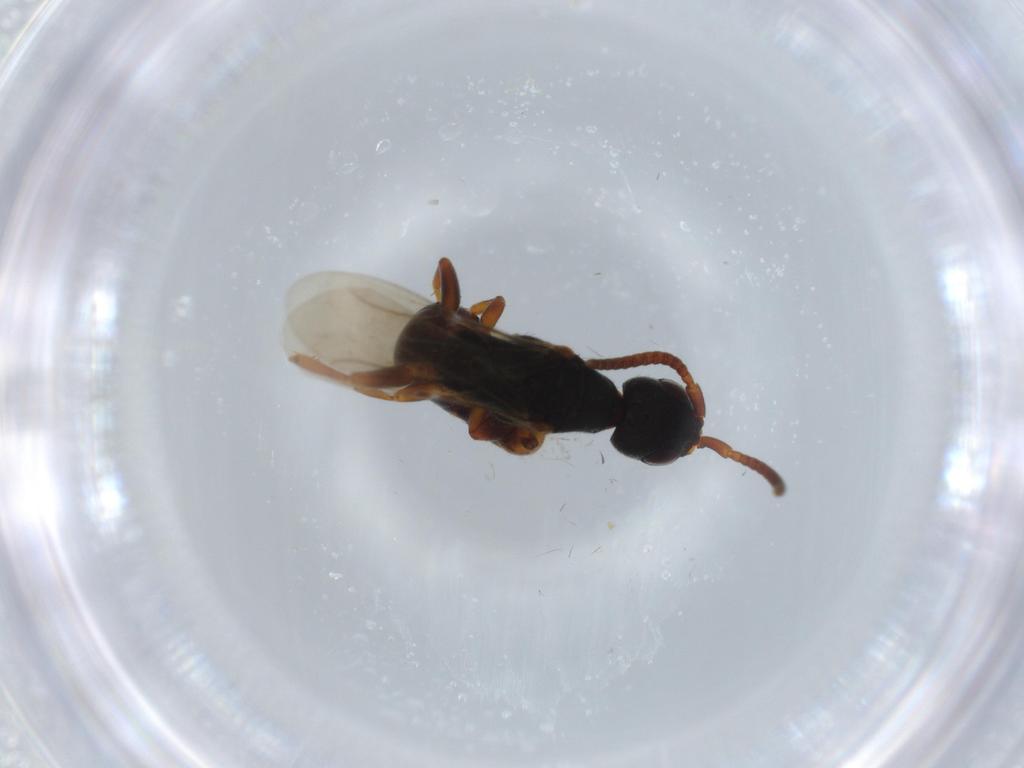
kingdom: Animalia
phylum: Arthropoda
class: Insecta
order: Hymenoptera
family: Bethylidae
